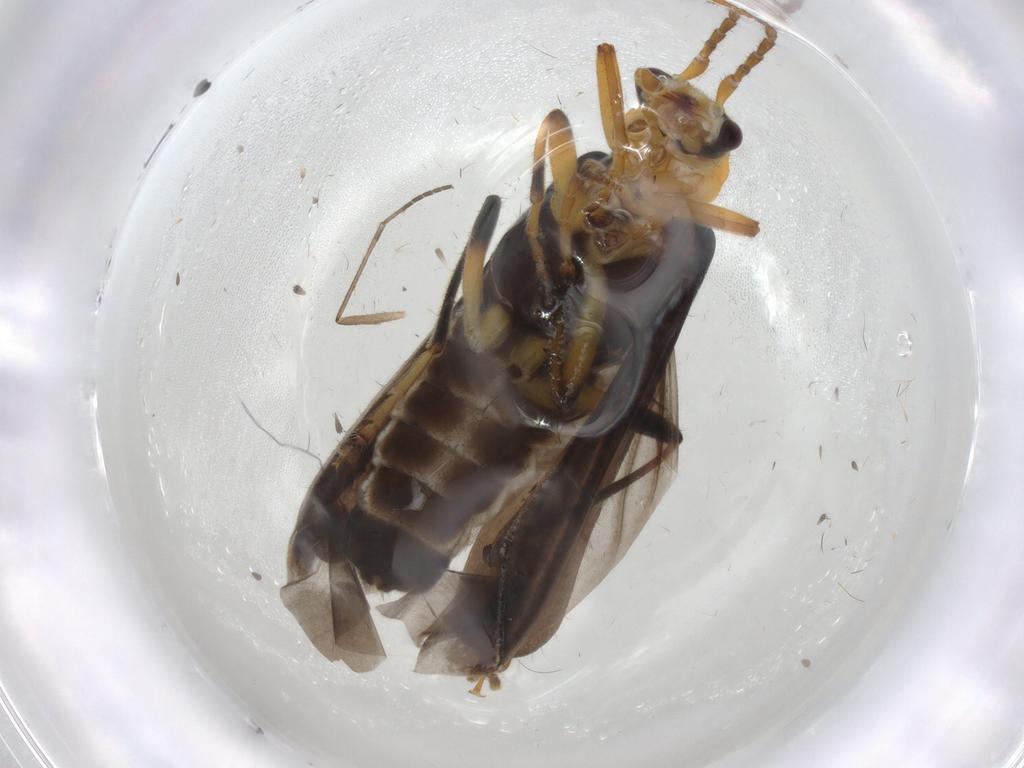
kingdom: Animalia
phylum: Arthropoda
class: Insecta
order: Coleoptera
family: Cantharidae
